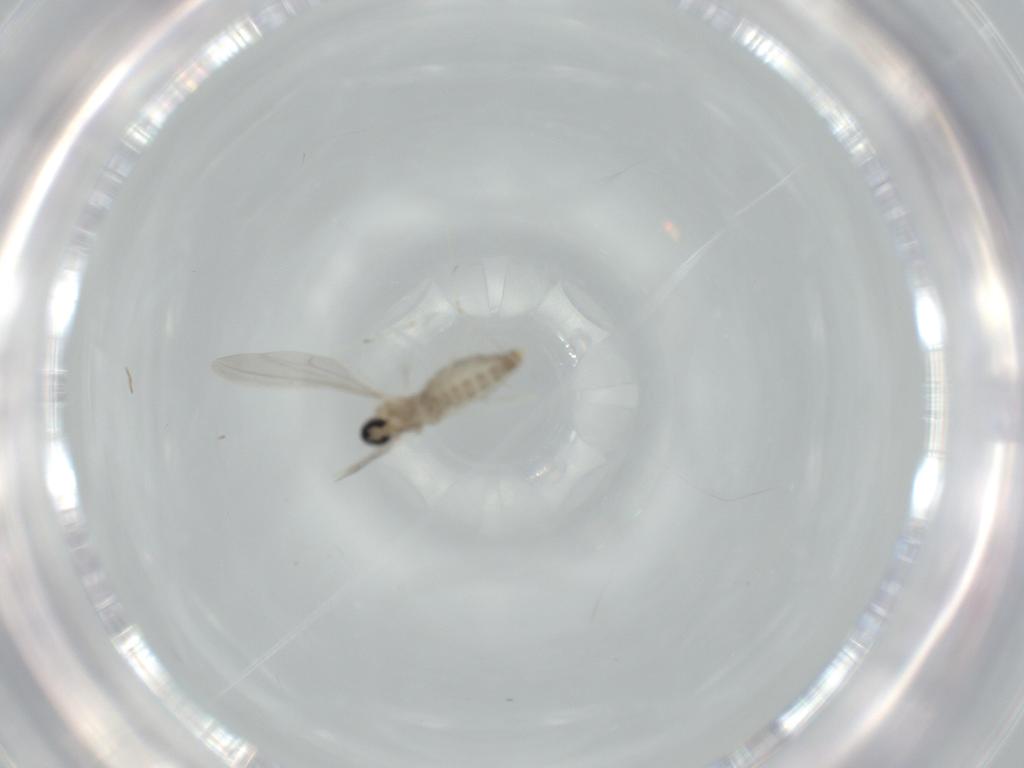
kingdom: Animalia
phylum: Arthropoda
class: Insecta
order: Diptera
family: Cecidomyiidae
